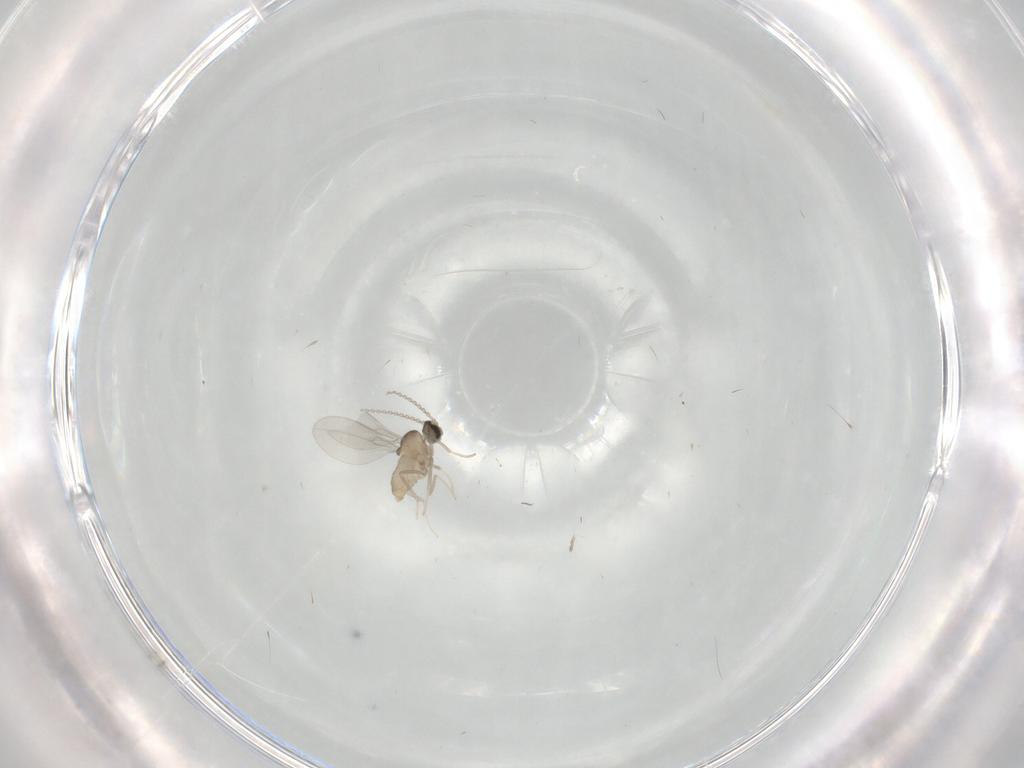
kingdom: Animalia
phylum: Arthropoda
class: Insecta
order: Diptera
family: Cecidomyiidae
